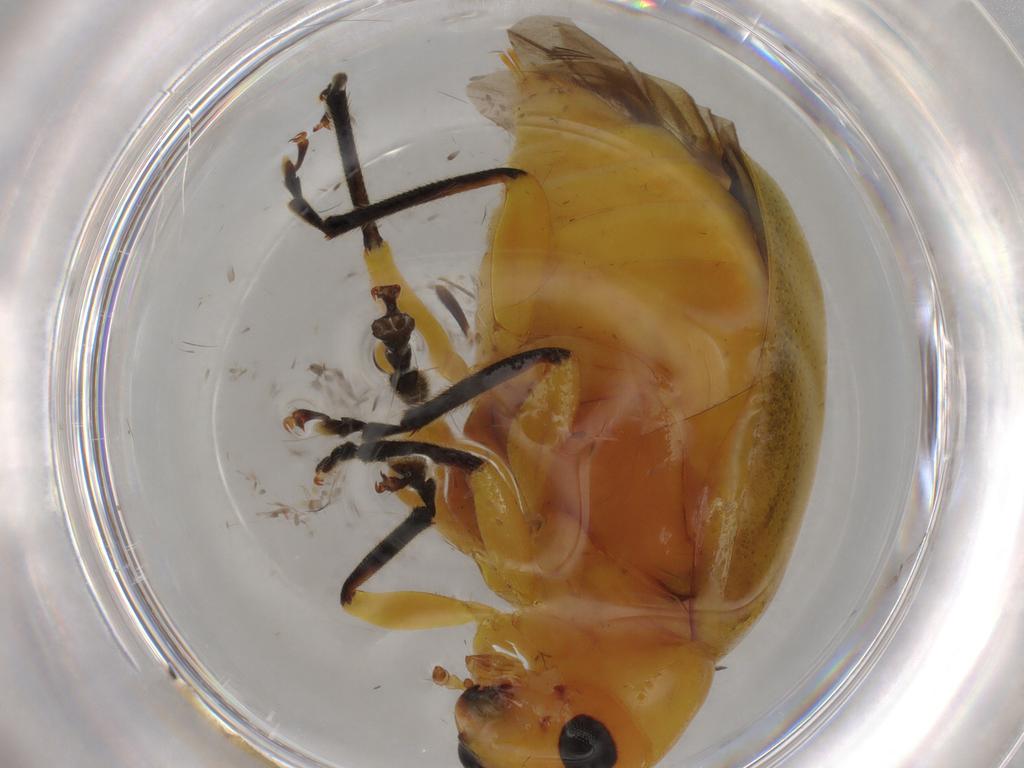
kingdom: Animalia
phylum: Arthropoda
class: Insecta
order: Coleoptera
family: Chrysomelidae
